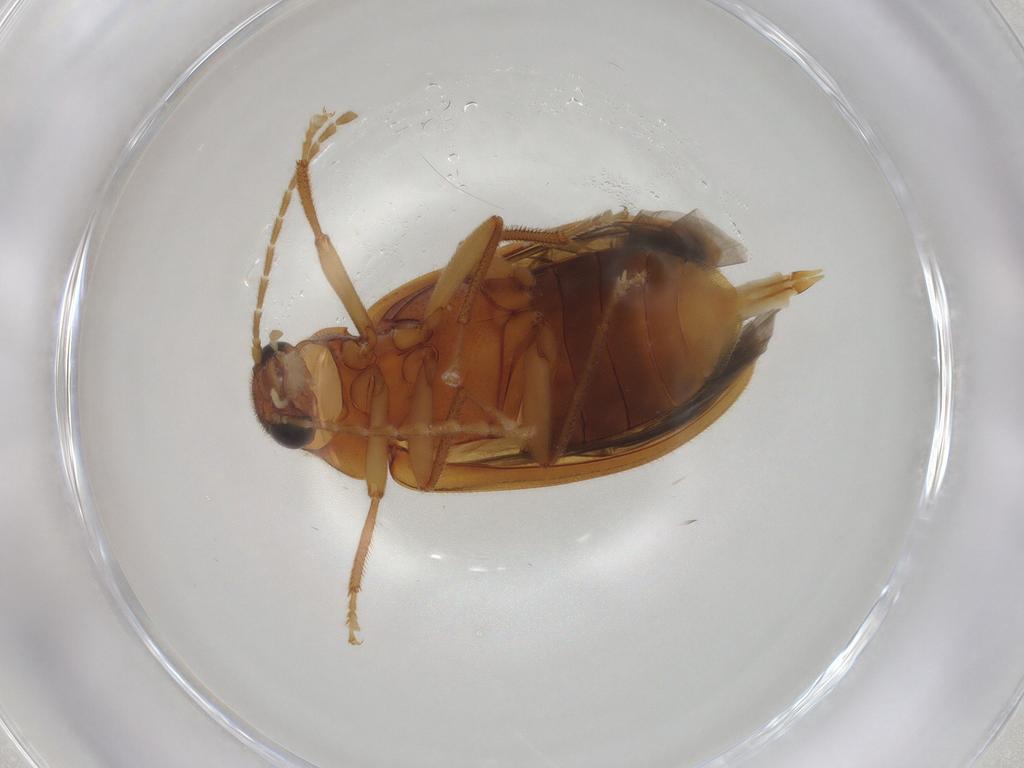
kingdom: Animalia
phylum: Arthropoda
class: Insecta
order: Coleoptera
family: Ptilodactylidae
